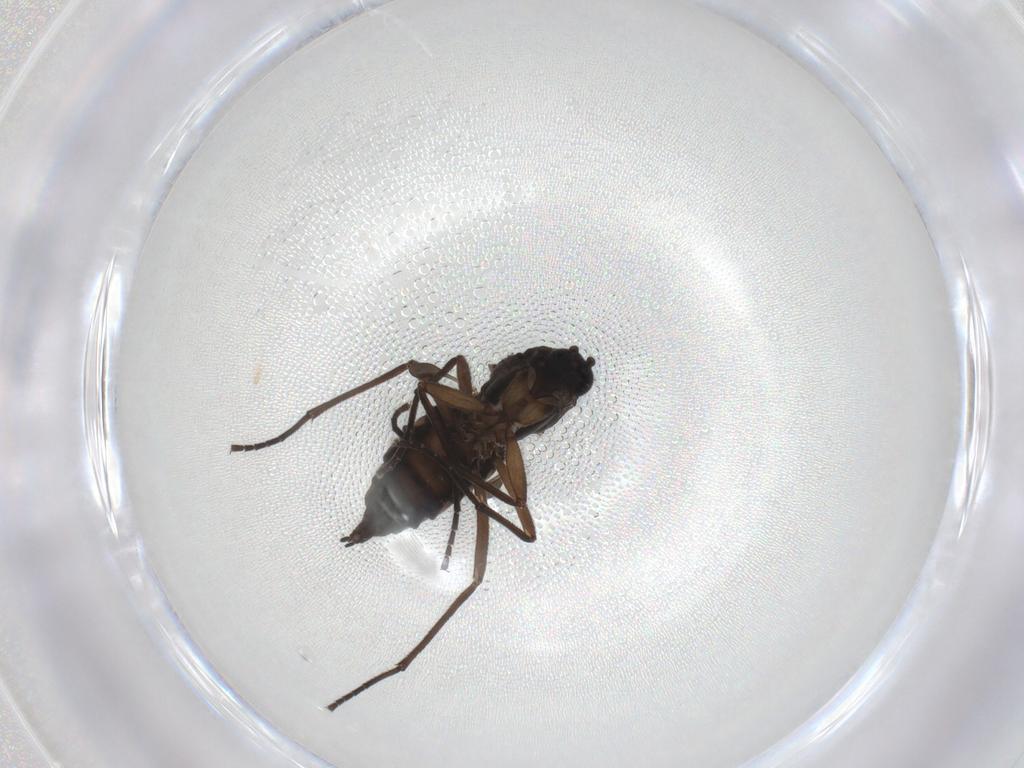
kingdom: Animalia
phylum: Arthropoda
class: Insecta
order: Diptera
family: Sciaridae
